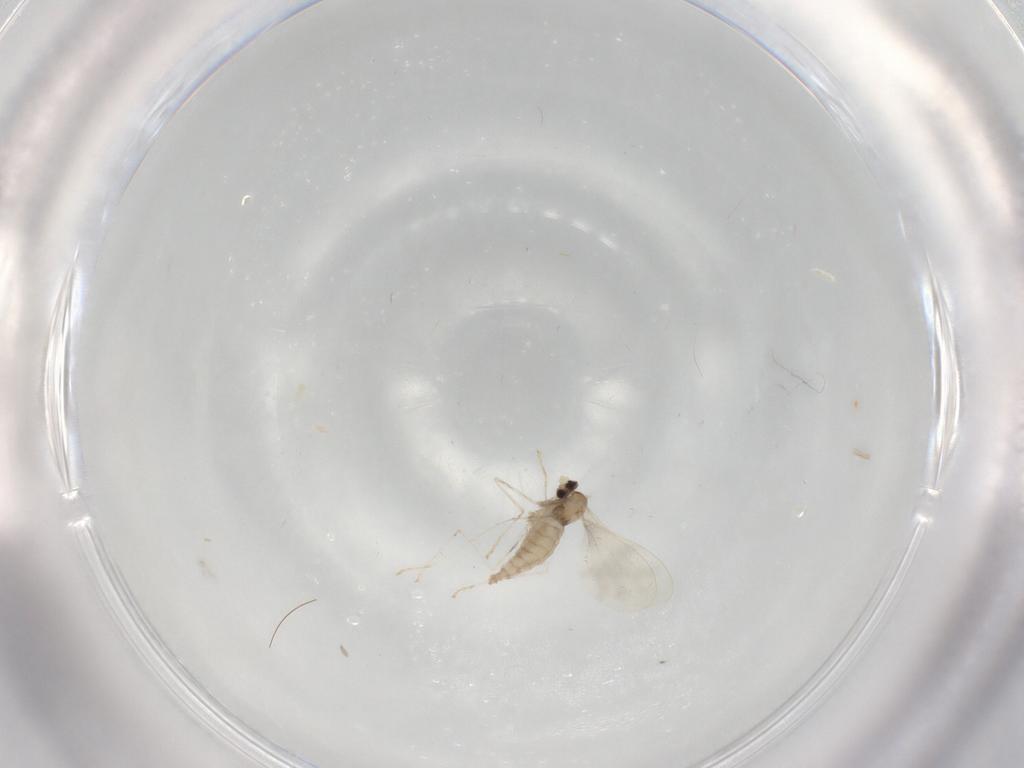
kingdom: Animalia
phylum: Arthropoda
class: Insecta
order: Diptera
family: Cecidomyiidae
